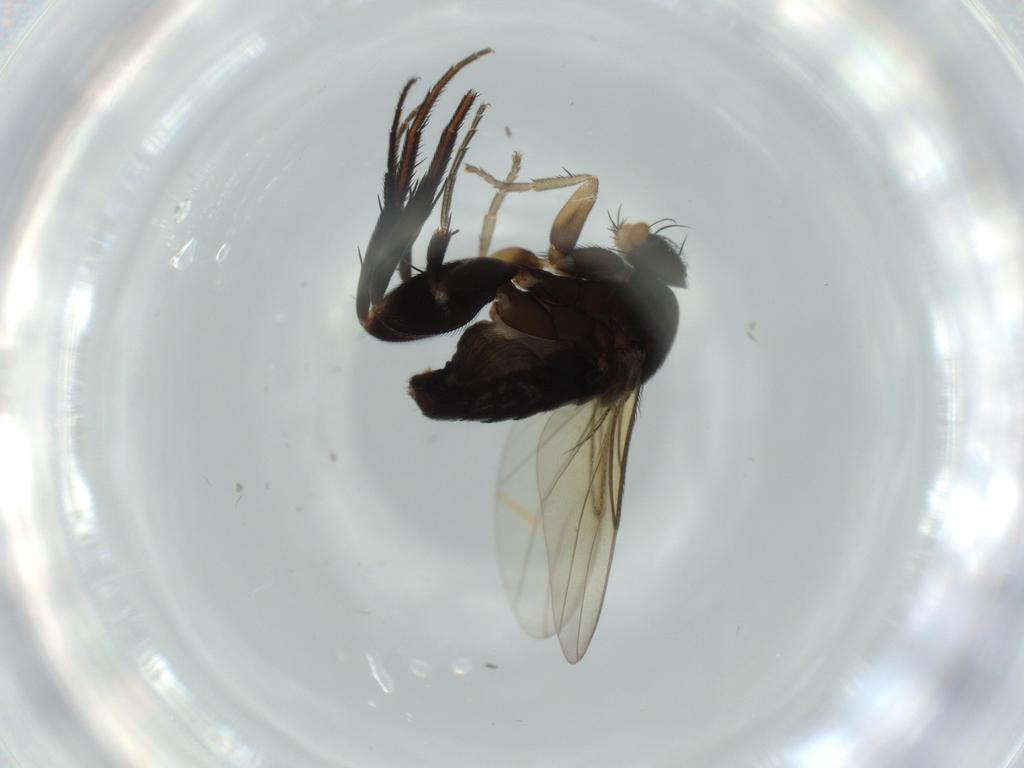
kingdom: Animalia
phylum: Arthropoda
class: Insecta
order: Diptera
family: Phoridae
